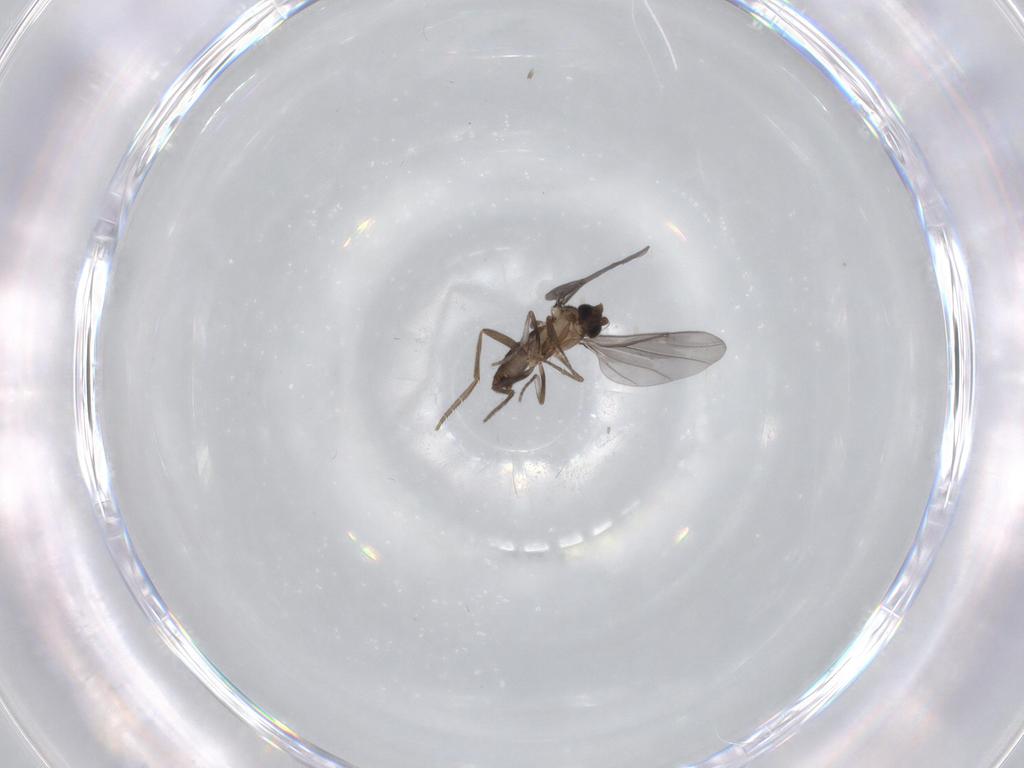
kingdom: Animalia
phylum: Arthropoda
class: Insecta
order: Diptera
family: Phoridae
